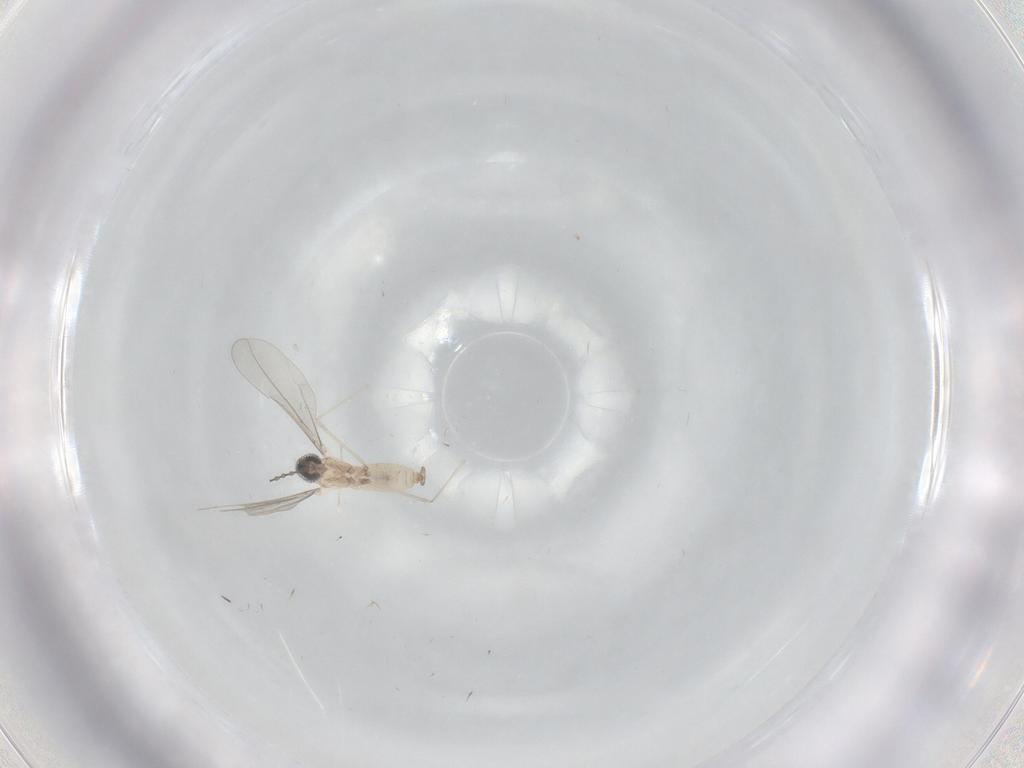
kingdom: Animalia
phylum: Arthropoda
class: Insecta
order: Diptera
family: Cecidomyiidae
